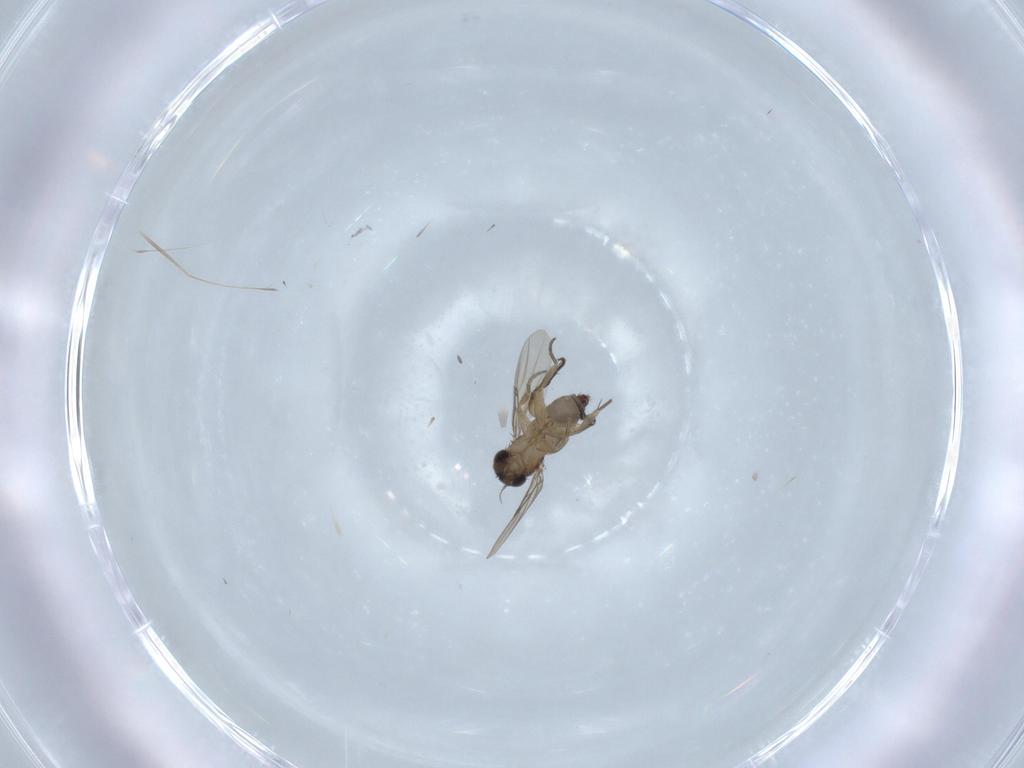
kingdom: Animalia
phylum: Arthropoda
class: Insecta
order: Diptera
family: Phoridae
